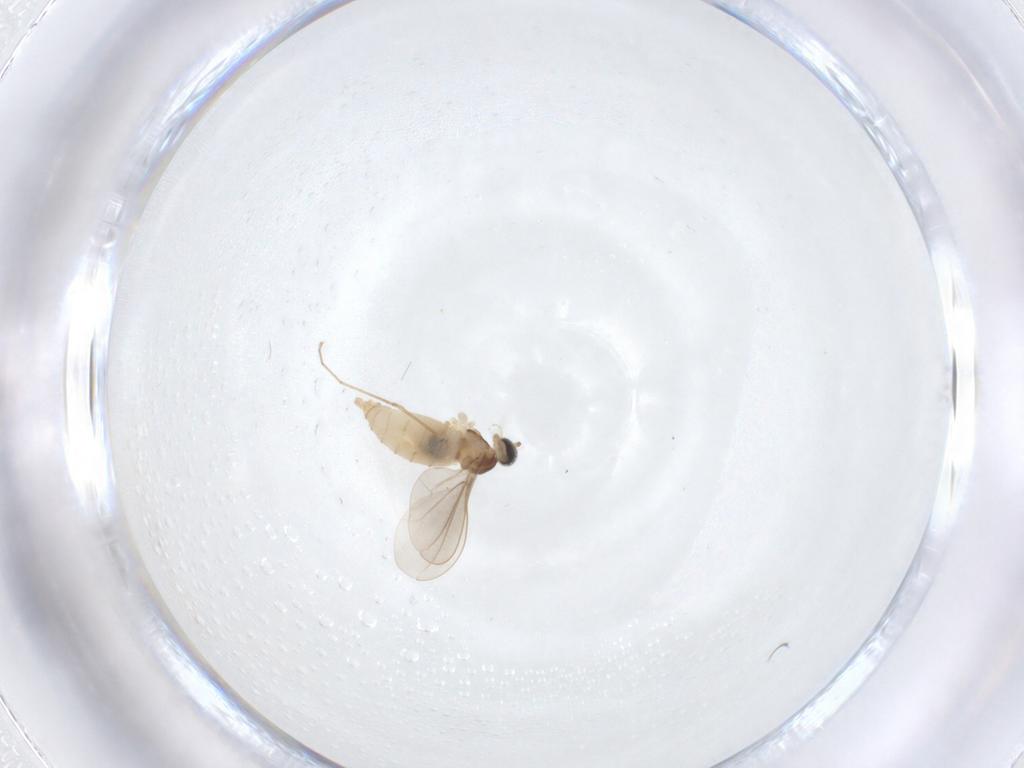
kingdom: Animalia
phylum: Arthropoda
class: Insecta
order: Diptera
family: Cecidomyiidae
